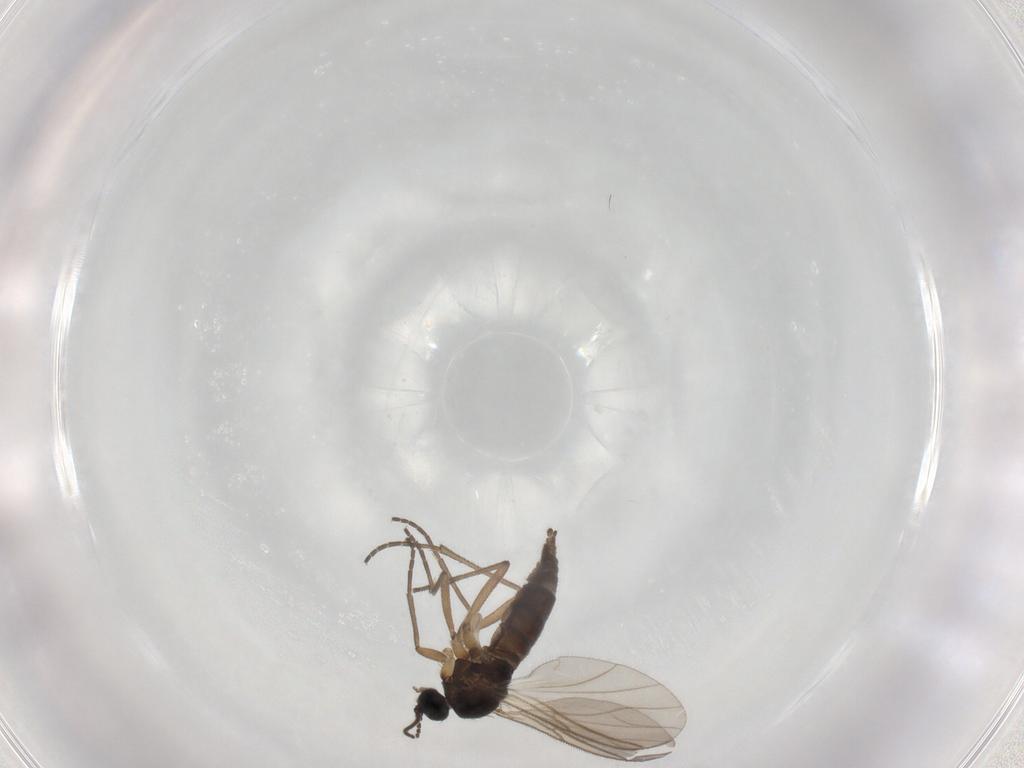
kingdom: Animalia
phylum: Arthropoda
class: Insecta
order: Diptera
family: Sciaridae
